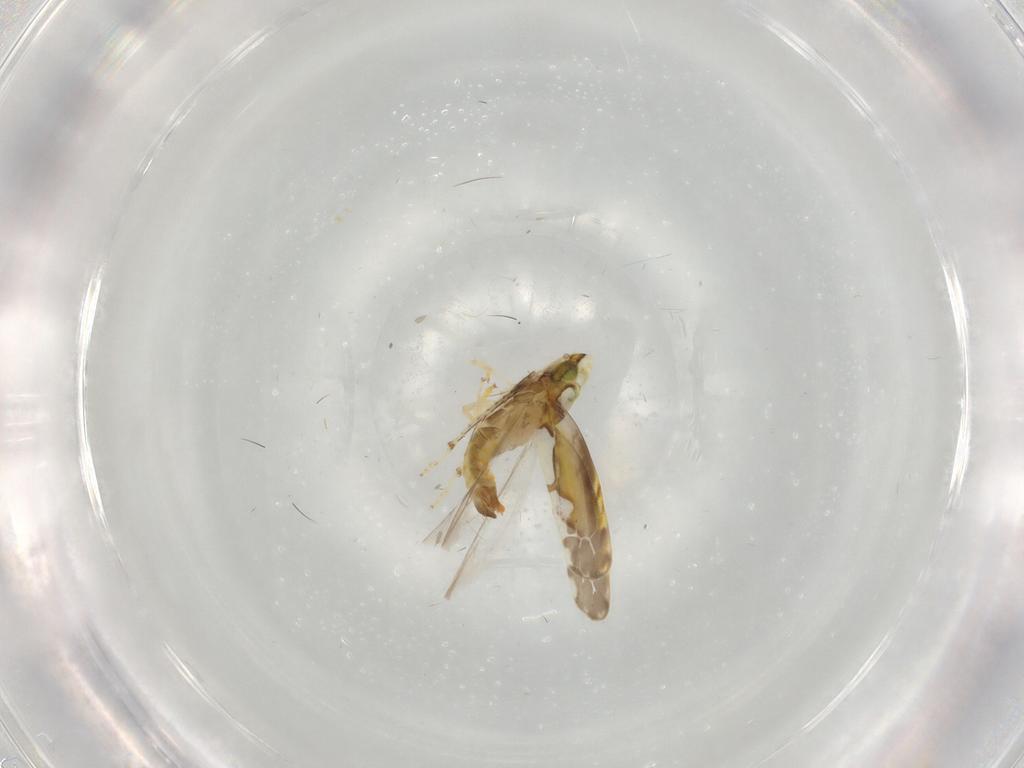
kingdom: Animalia
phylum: Arthropoda
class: Insecta
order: Hemiptera
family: Cicadellidae
